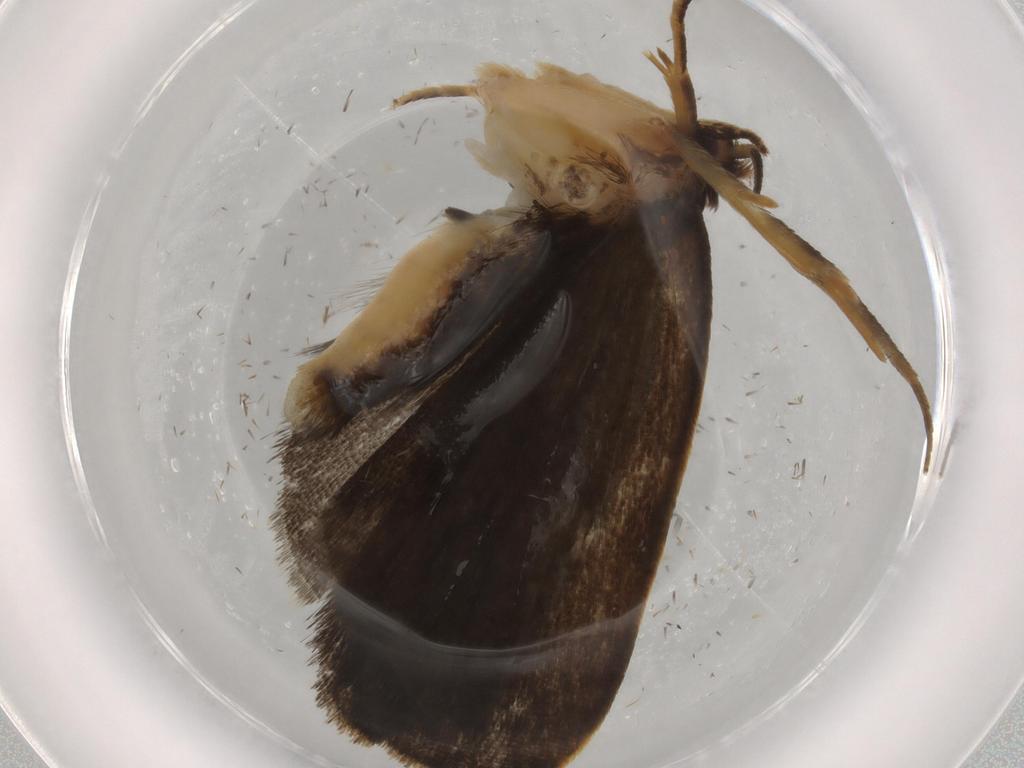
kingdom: Animalia
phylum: Arthropoda
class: Insecta
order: Lepidoptera
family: Depressariidae
